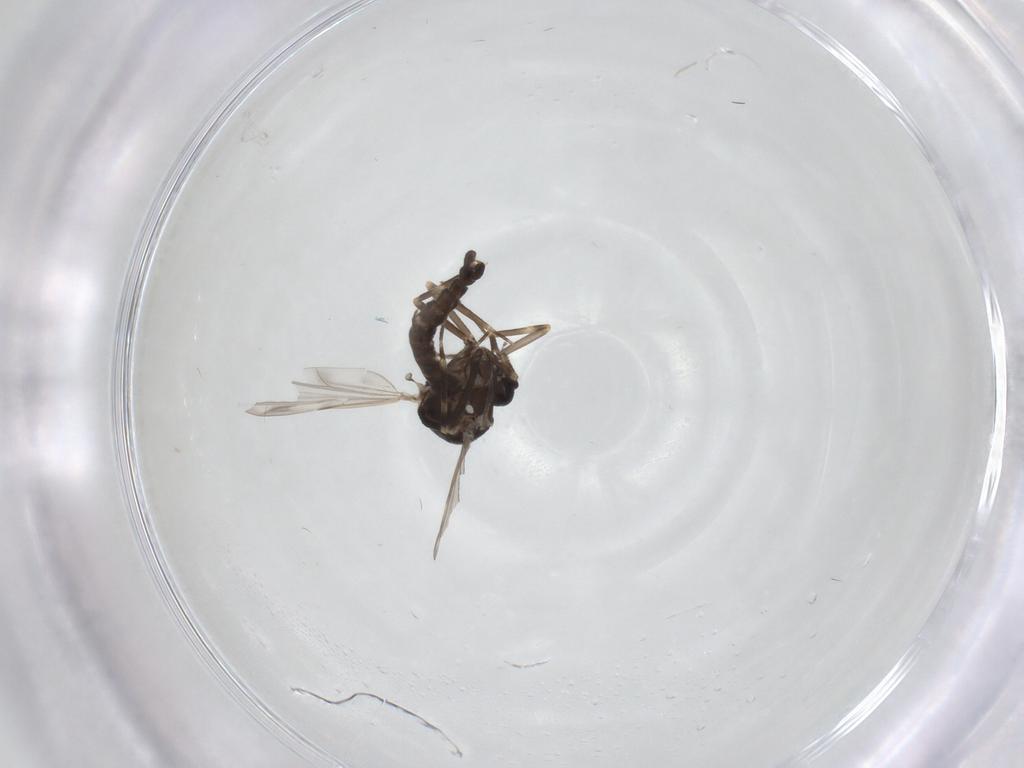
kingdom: Animalia
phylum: Arthropoda
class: Insecta
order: Diptera
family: Ceratopogonidae
